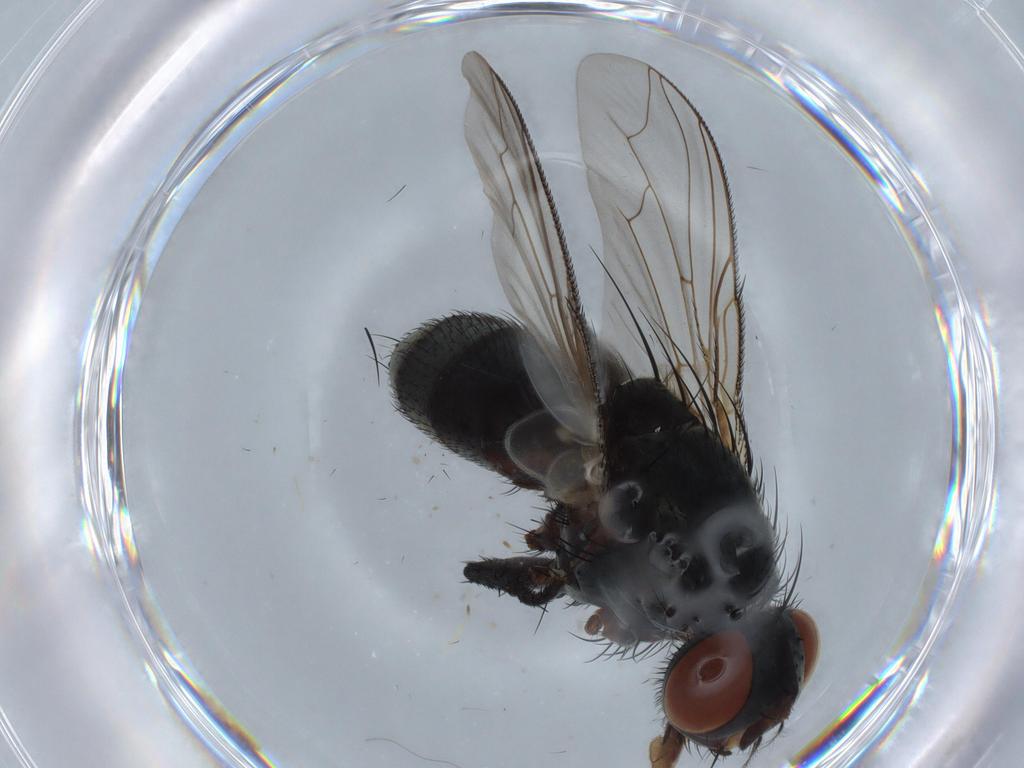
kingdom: Animalia
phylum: Arthropoda
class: Insecta
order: Diptera
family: Sarcophagidae
